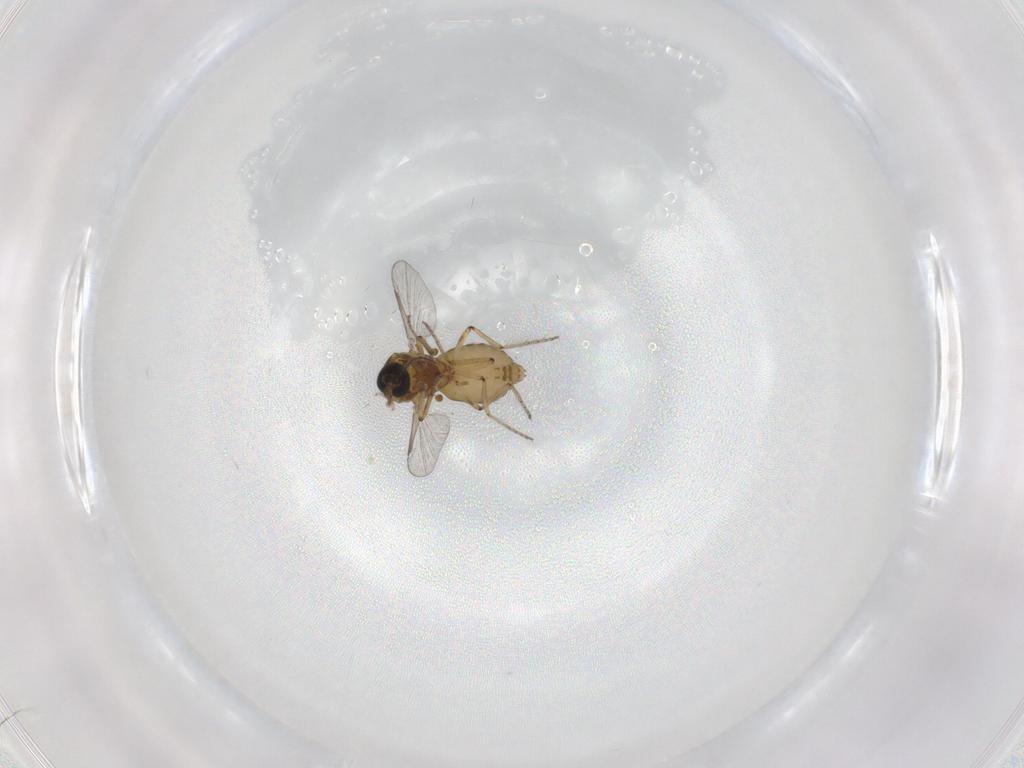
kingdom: Animalia
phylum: Arthropoda
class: Insecta
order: Diptera
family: Ceratopogonidae
